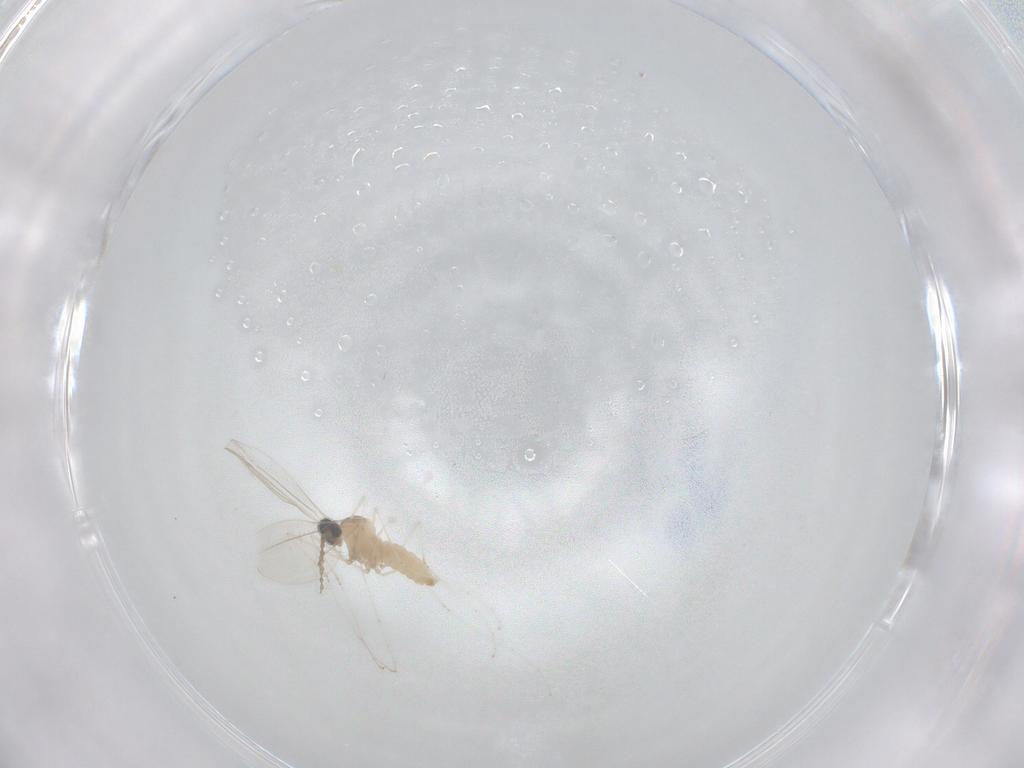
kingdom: Animalia
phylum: Arthropoda
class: Insecta
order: Diptera
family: Cecidomyiidae
